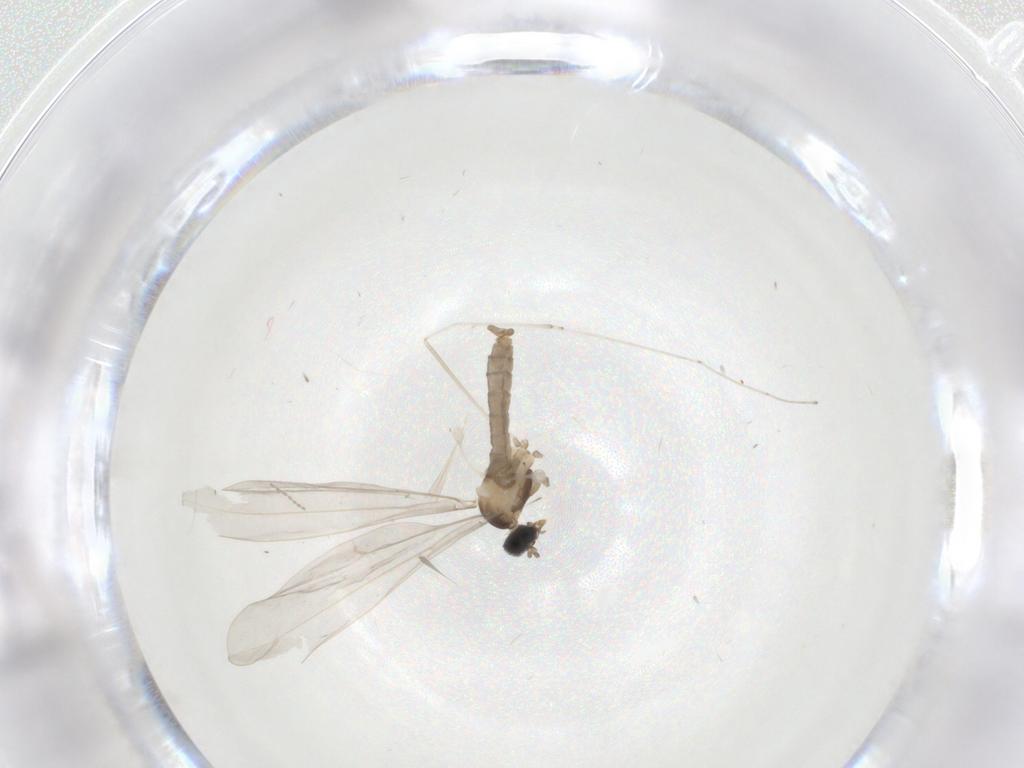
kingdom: Animalia
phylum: Arthropoda
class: Insecta
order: Diptera
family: Cecidomyiidae
